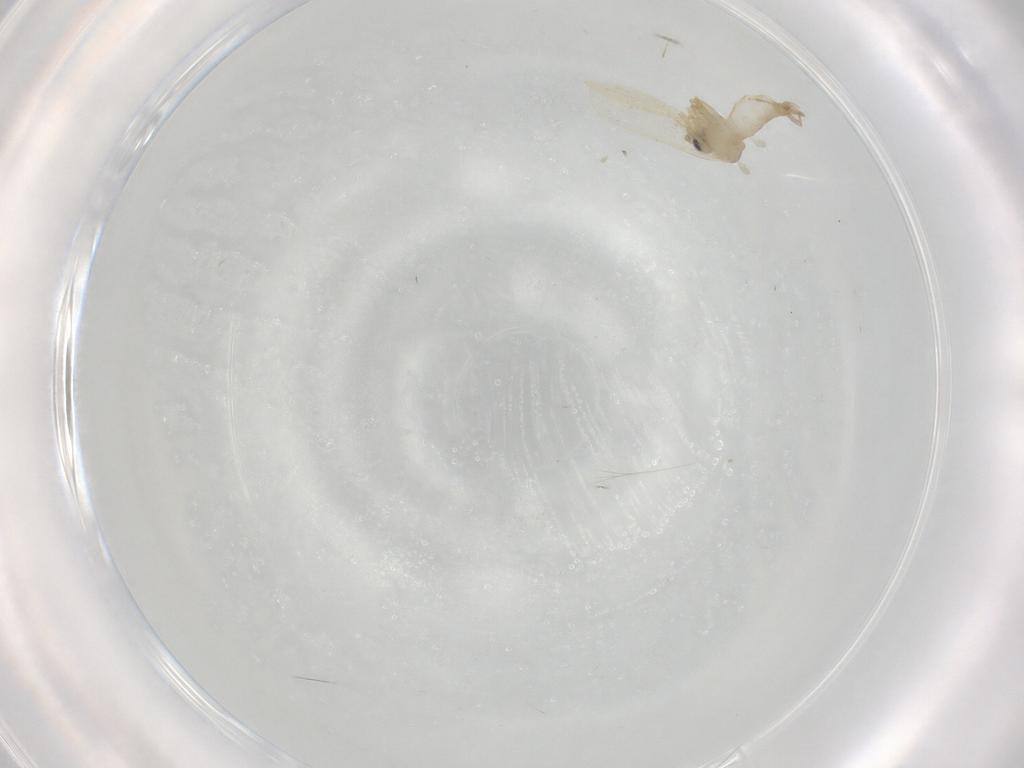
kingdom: Animalia
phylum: Arthropoda
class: Insecta
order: Diptera
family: Psychodidae
